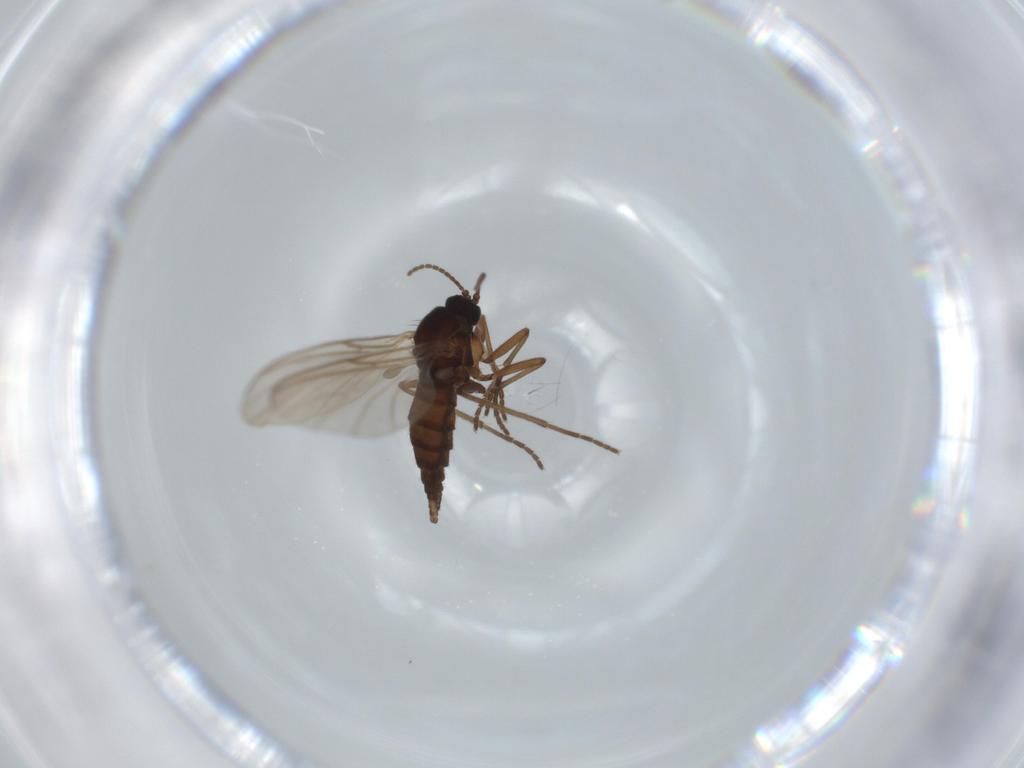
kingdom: Animalia
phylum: Arthropoda
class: Insecta
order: Diptera
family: Sciaridae
